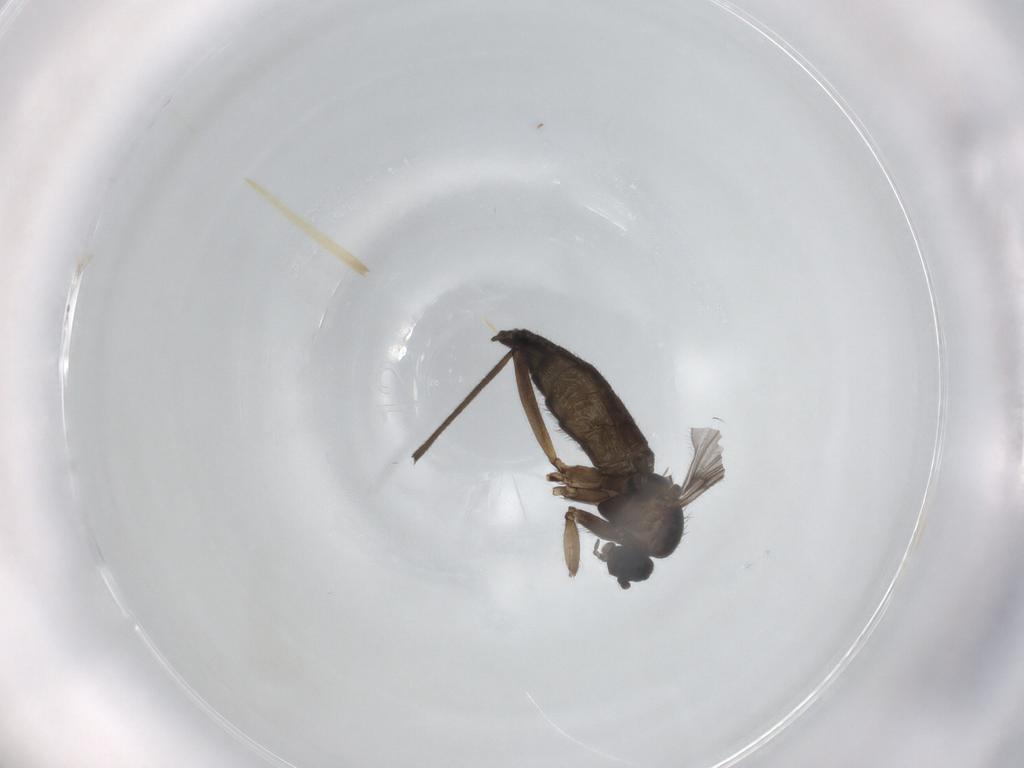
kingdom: Animalia
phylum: Arthropoda
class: Insecta
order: Diptera
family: Sciaridae
